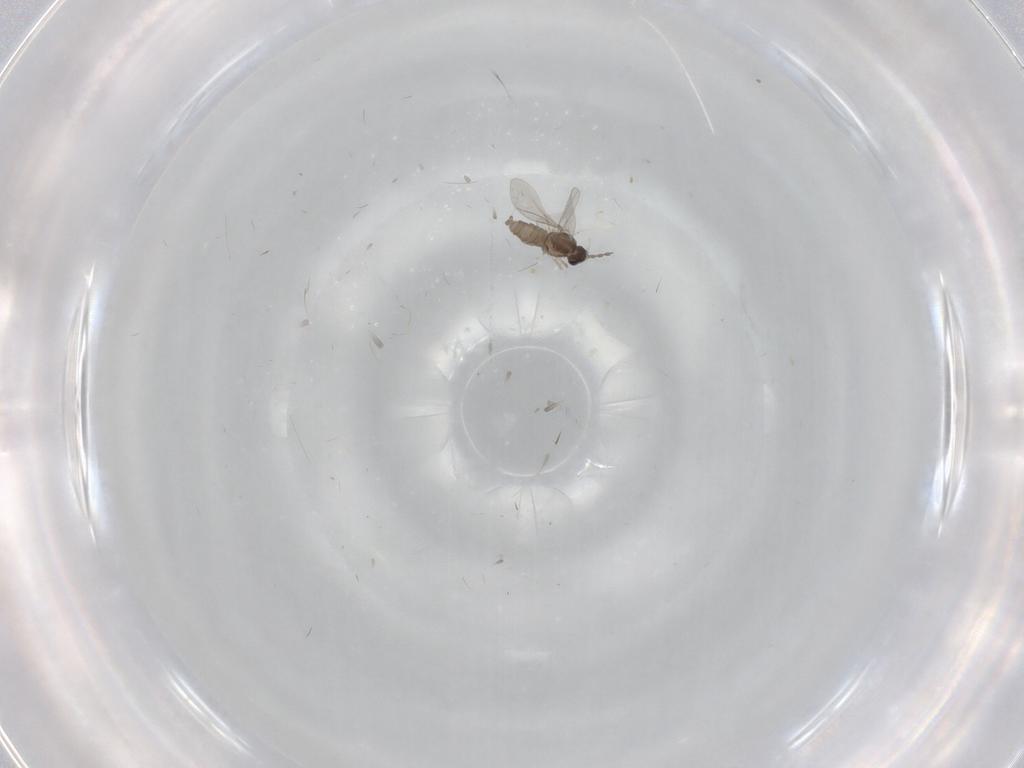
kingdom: Animalia
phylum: Arthropoda
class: Insecta
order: Diptera
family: Cecidomyiidae
